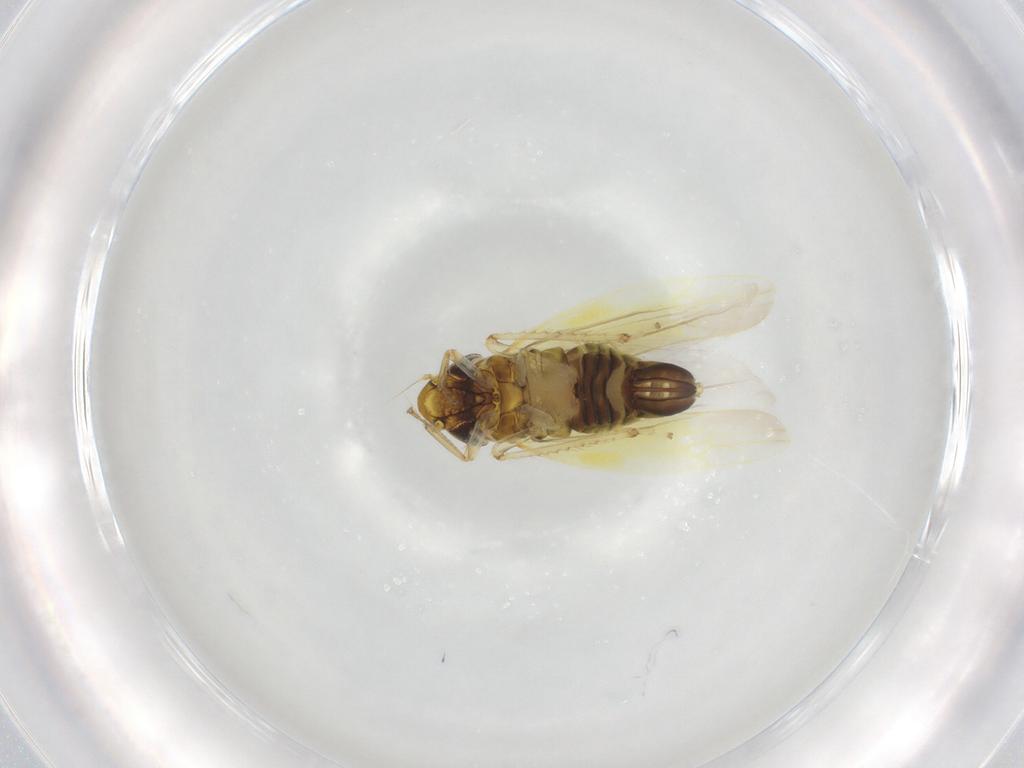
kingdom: Animalia
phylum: Arthropoda
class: Insecta
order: Hemiptera
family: Cicadellidae
